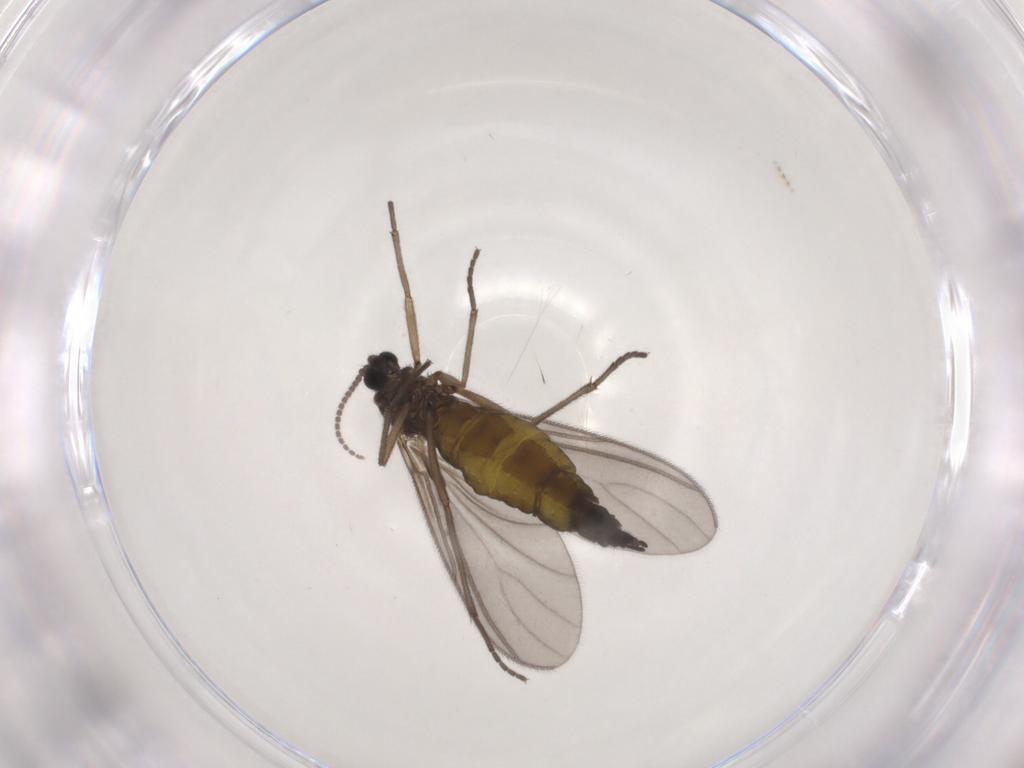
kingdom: Animalia
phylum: Arthropoda
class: Insecta
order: Diptera
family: Sciaridae
